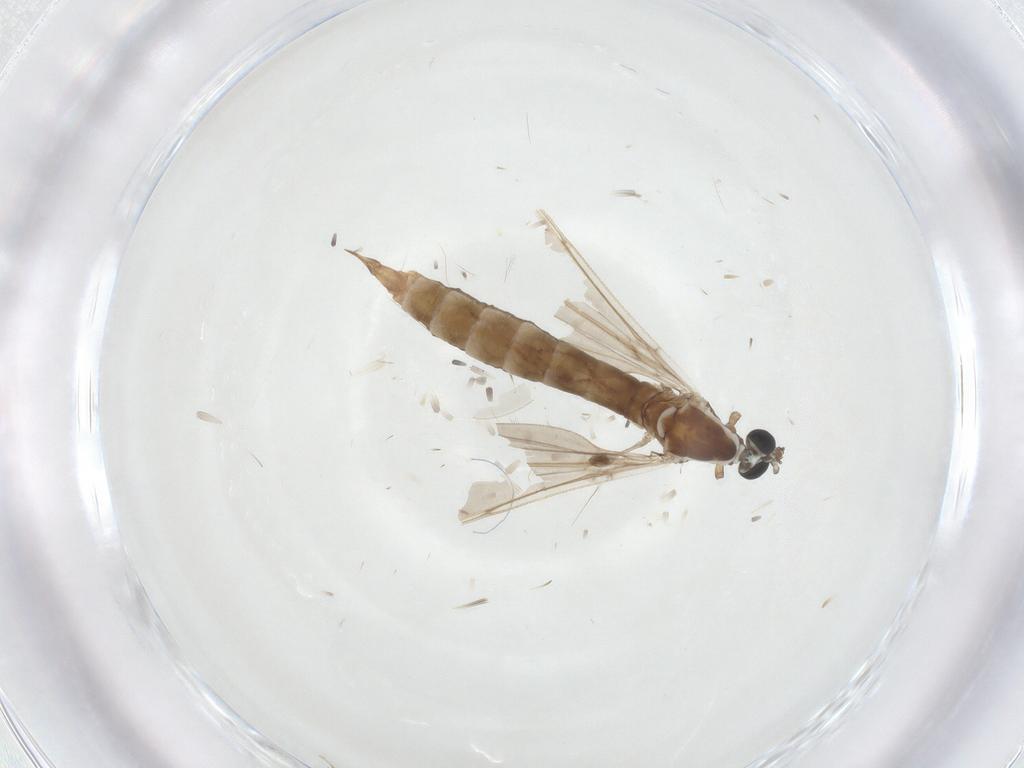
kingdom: Animalia
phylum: Arthropoda
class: Insecta
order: Diptera
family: Limoniidae
